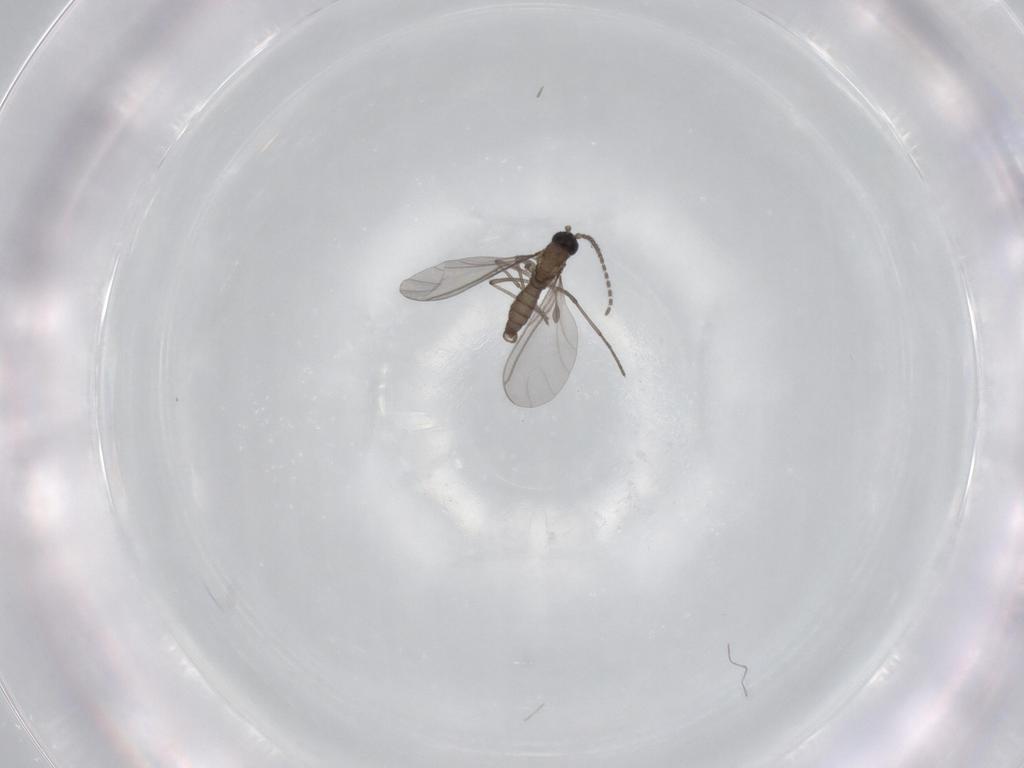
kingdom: Animalia
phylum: Arthropoda
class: Insecta
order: Diptera
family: Sciaridae
